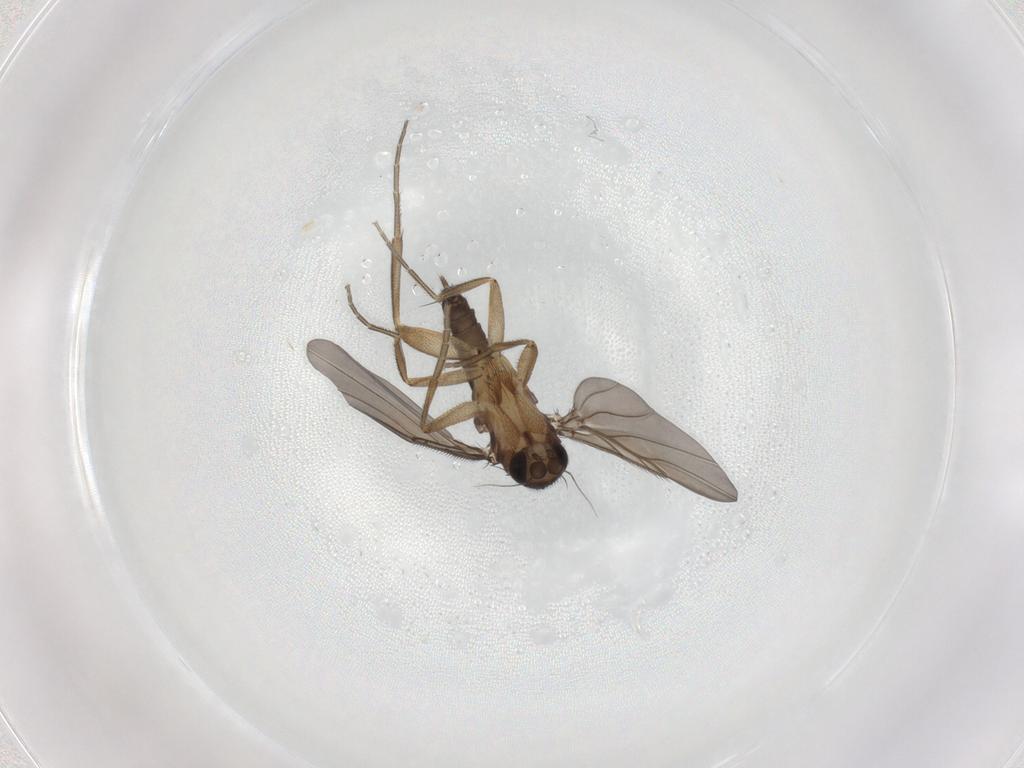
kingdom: Animalia
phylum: Arthropoda
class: Insecta
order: Diptera
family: Phoridae
